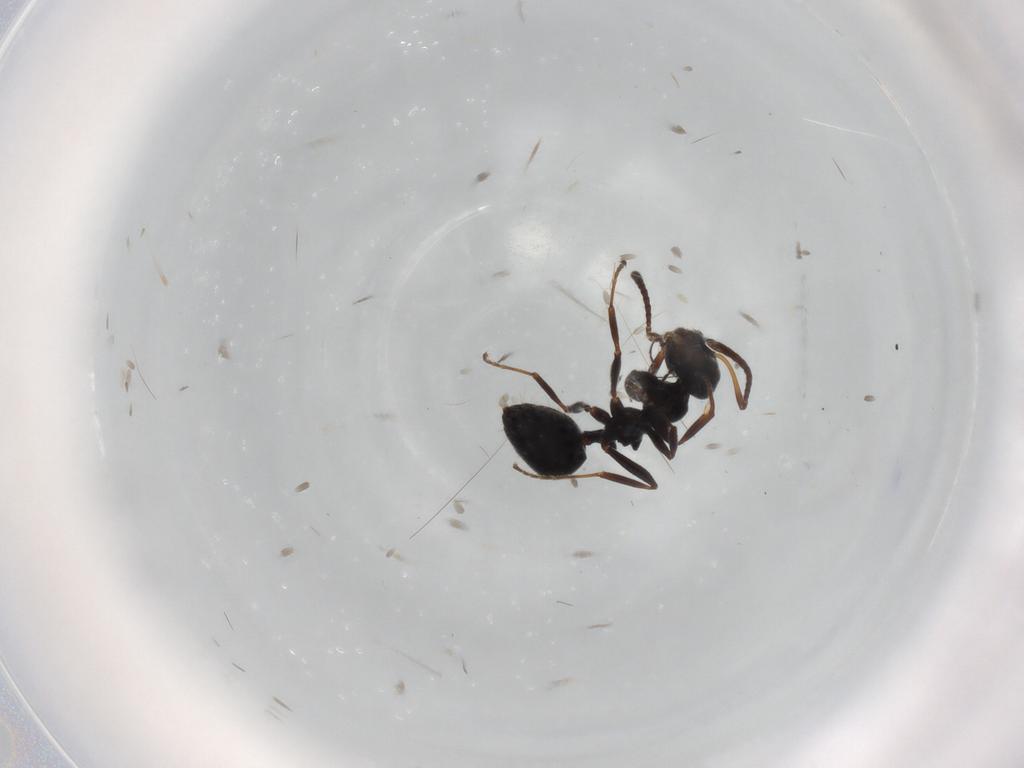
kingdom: Animalia
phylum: Arthropoda
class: Insecta
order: Hymenoptera
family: Formicidae
